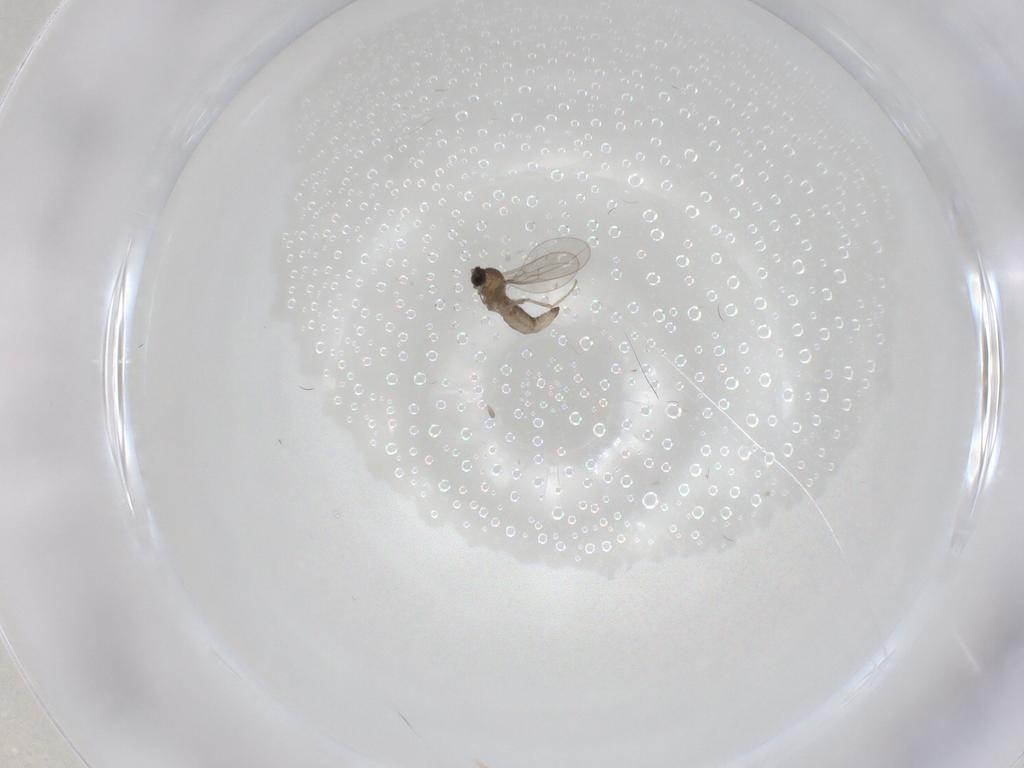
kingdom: Animalia
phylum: Arthropoda
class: Insecta
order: Diptera
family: Cecidomyiidae
